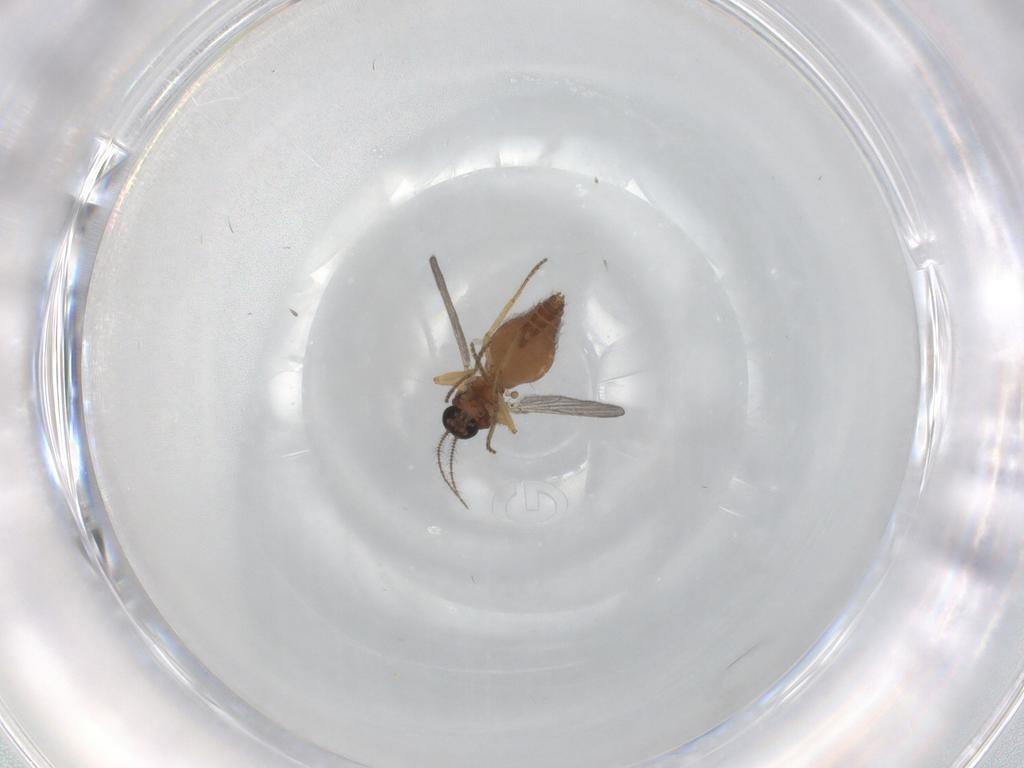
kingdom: Animalia
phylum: Arthropoda
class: Insecta
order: Diptera
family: Ceratopogonidae
